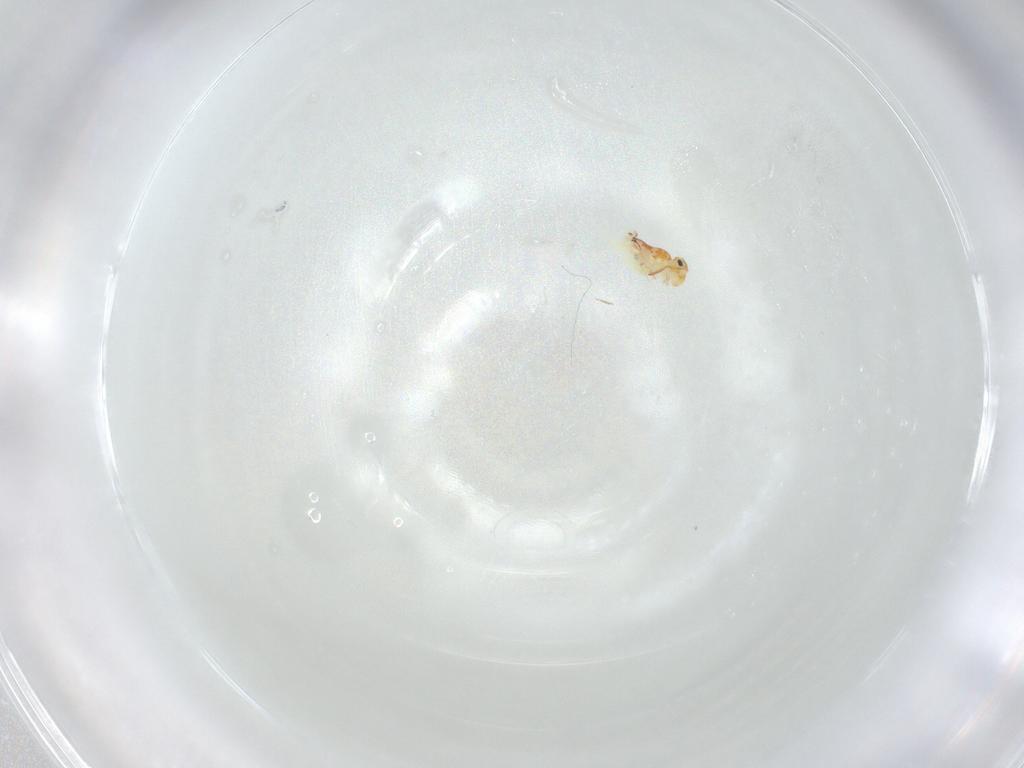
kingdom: Animalia
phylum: Arthropoda
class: Collembola
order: Symphypleona
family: Bourletiellidae
